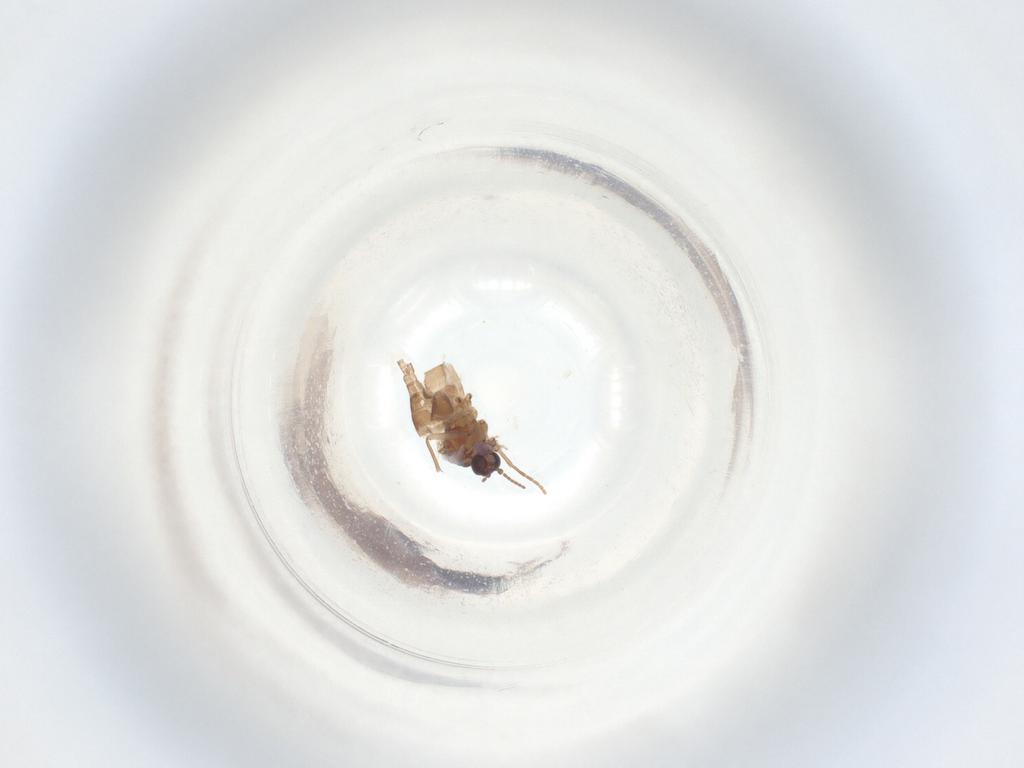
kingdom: Animalia
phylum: Arthropoda
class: Insecta
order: Diptera
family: Sciaridae
